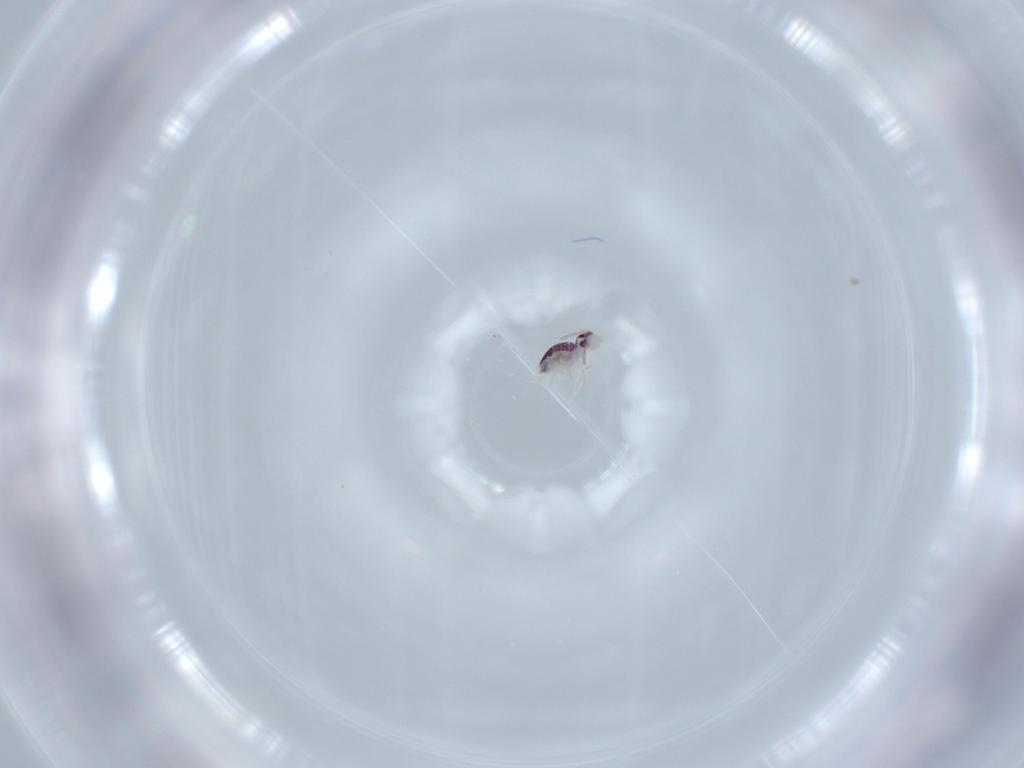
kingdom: Animalia
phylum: Arthropoda
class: Collembola
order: Symphypleona
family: Bourletiellidae
